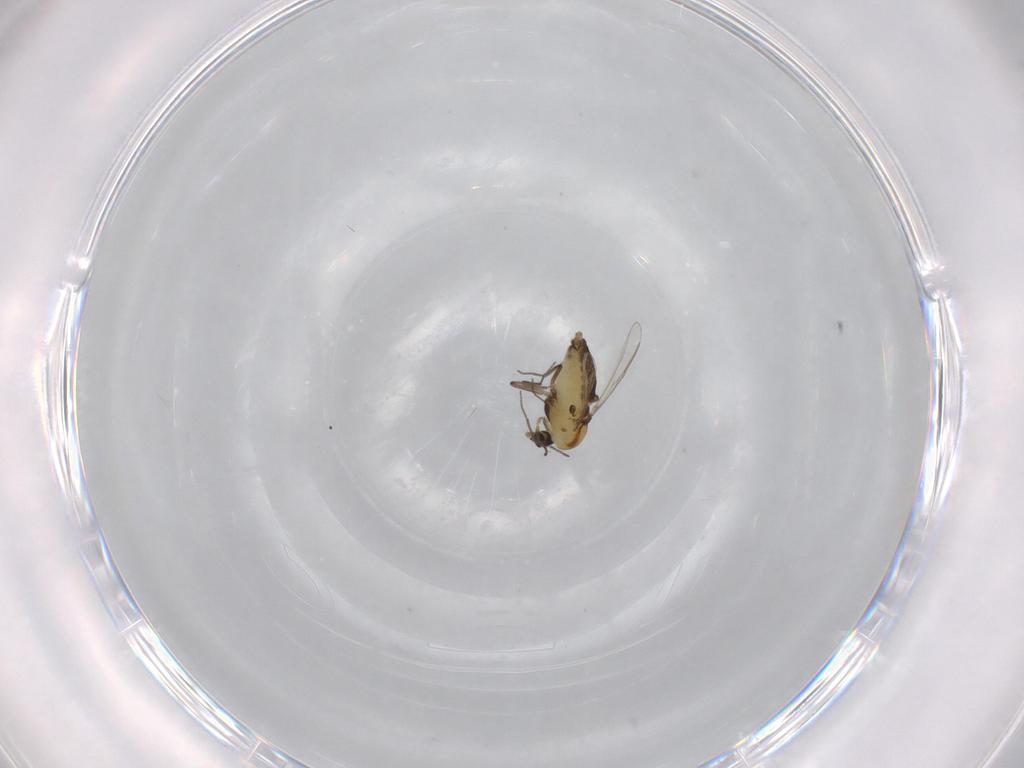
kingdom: Animalia
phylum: Arthropoda
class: Insecta
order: Diptera
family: Chironomidae
